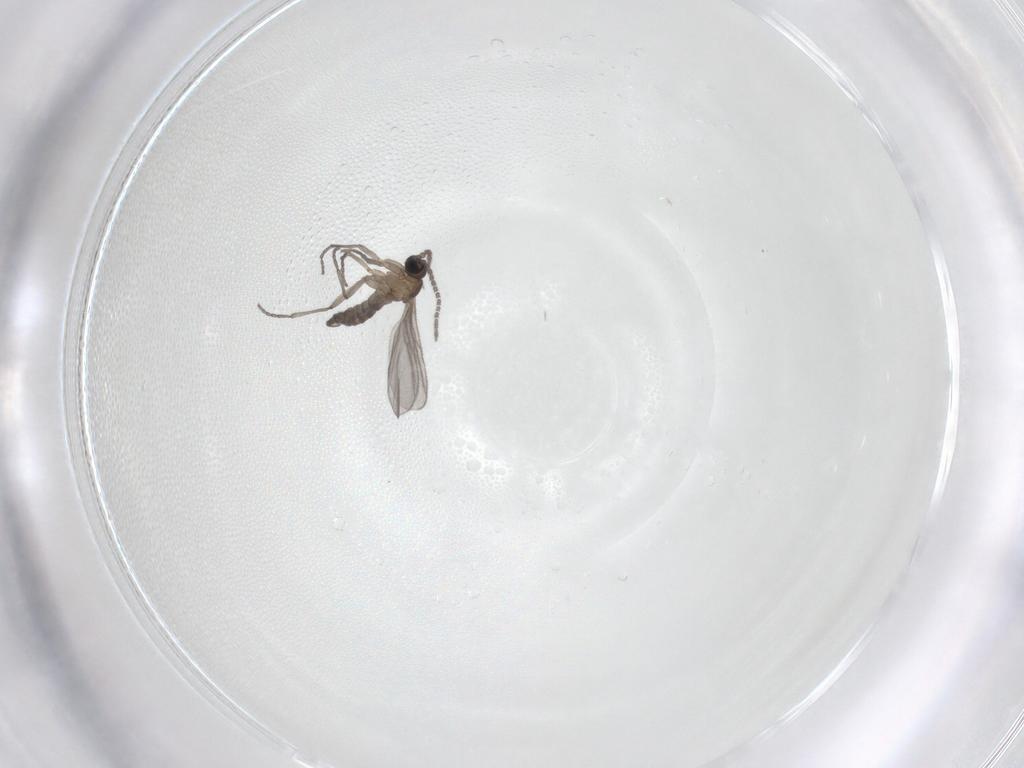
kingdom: Animalia
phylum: Arthropoda
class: Insecta
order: Diptera
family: Sciaridae
